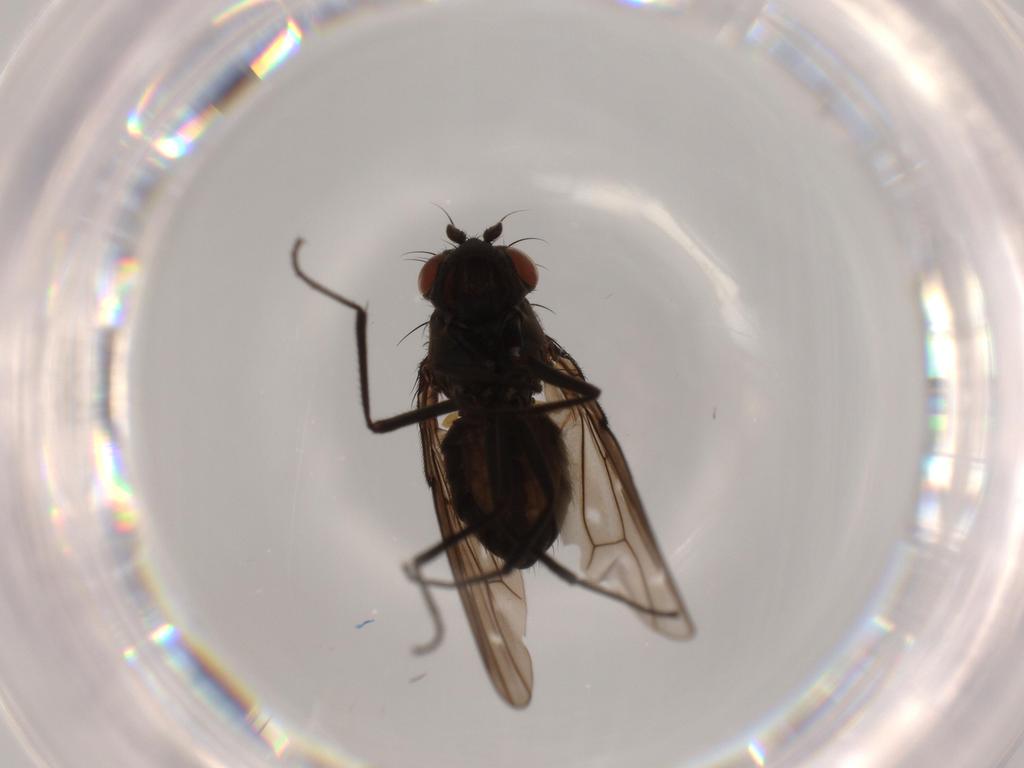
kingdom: Animalia
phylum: Arthropoda
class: Insecta
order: Diptera
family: Ephydridae
